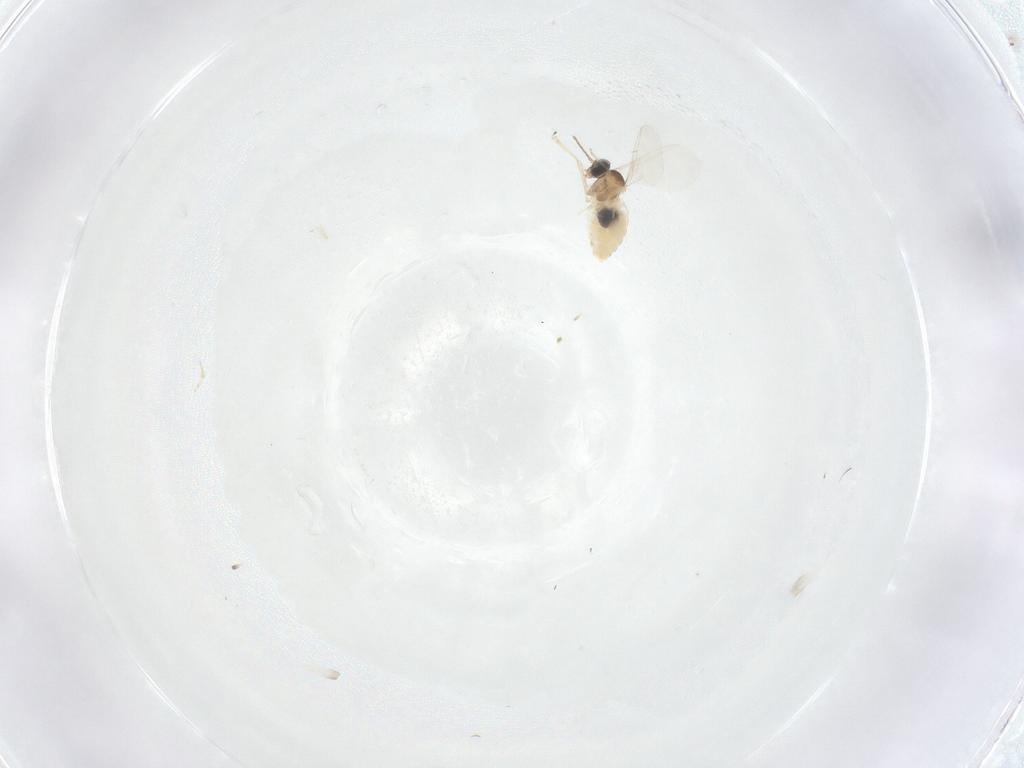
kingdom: Animalia
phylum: Arthropoda
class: Insecta
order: Diptera
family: Cecidomyiidae
